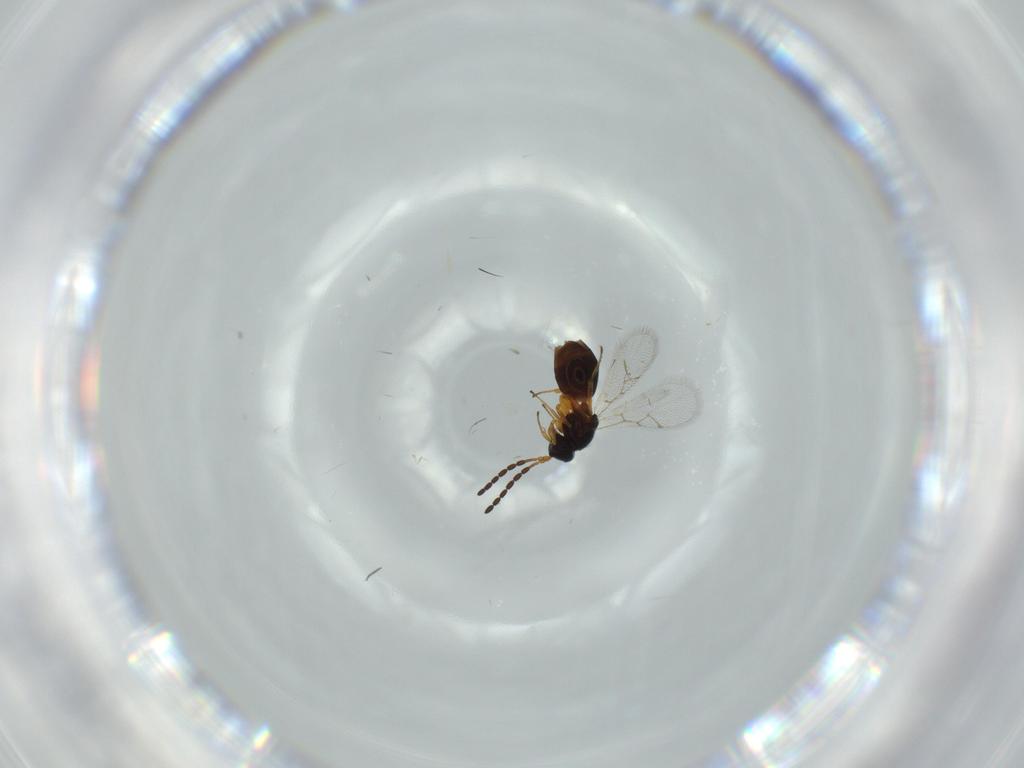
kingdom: Animalia
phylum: Arthropoda
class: Insecta
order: Hymenoptera
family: Figitidae
